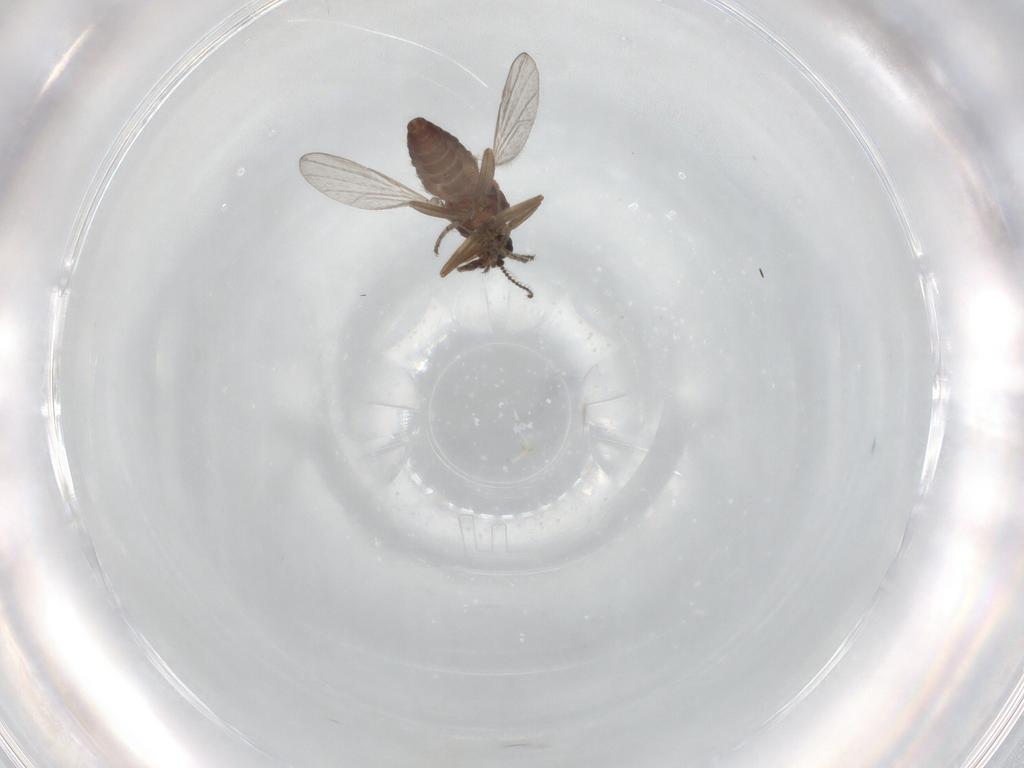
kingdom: Animalia
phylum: Arthropoda
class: Insecta
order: Diptera
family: Ceratopogonidae
